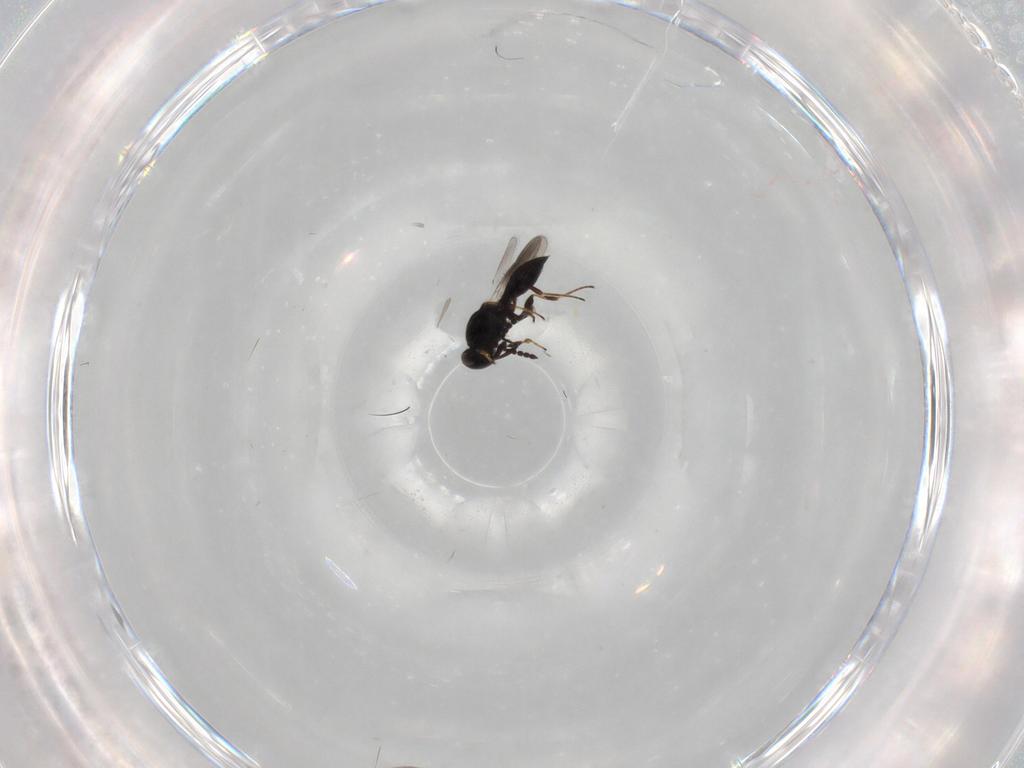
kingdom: Animalia
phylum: Arthropoda
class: Insecta
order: Hymenoptera
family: Platygastridae
